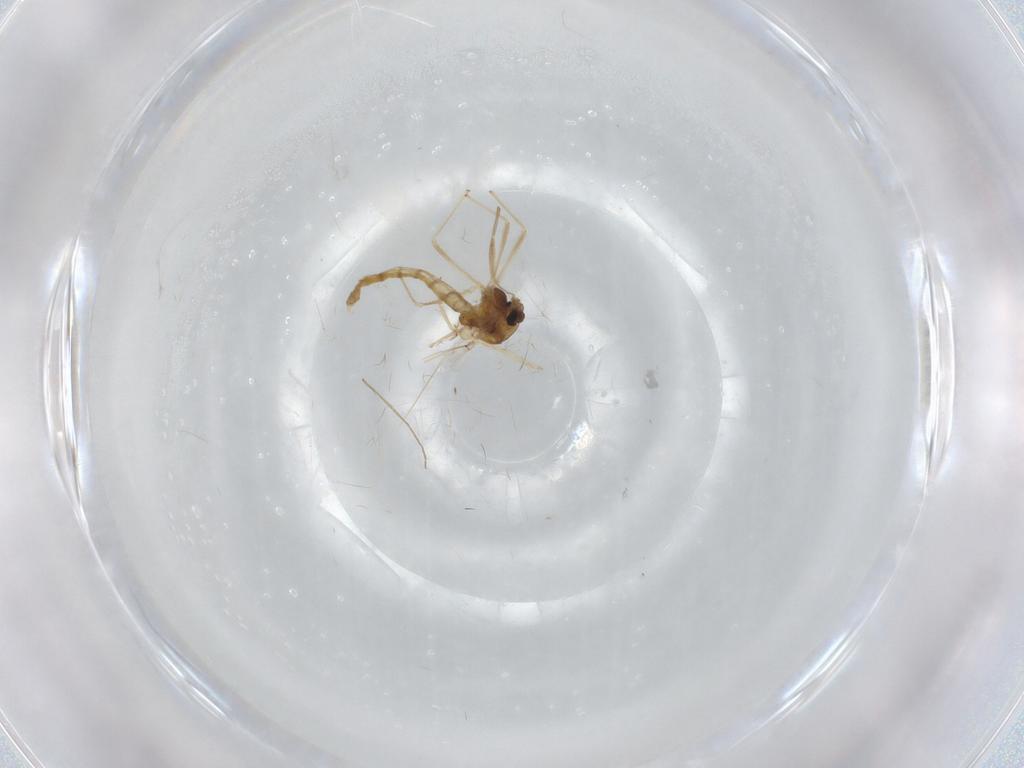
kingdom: Animalia
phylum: Arthropoda
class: Insecta
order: Diptera
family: Chironomidae
